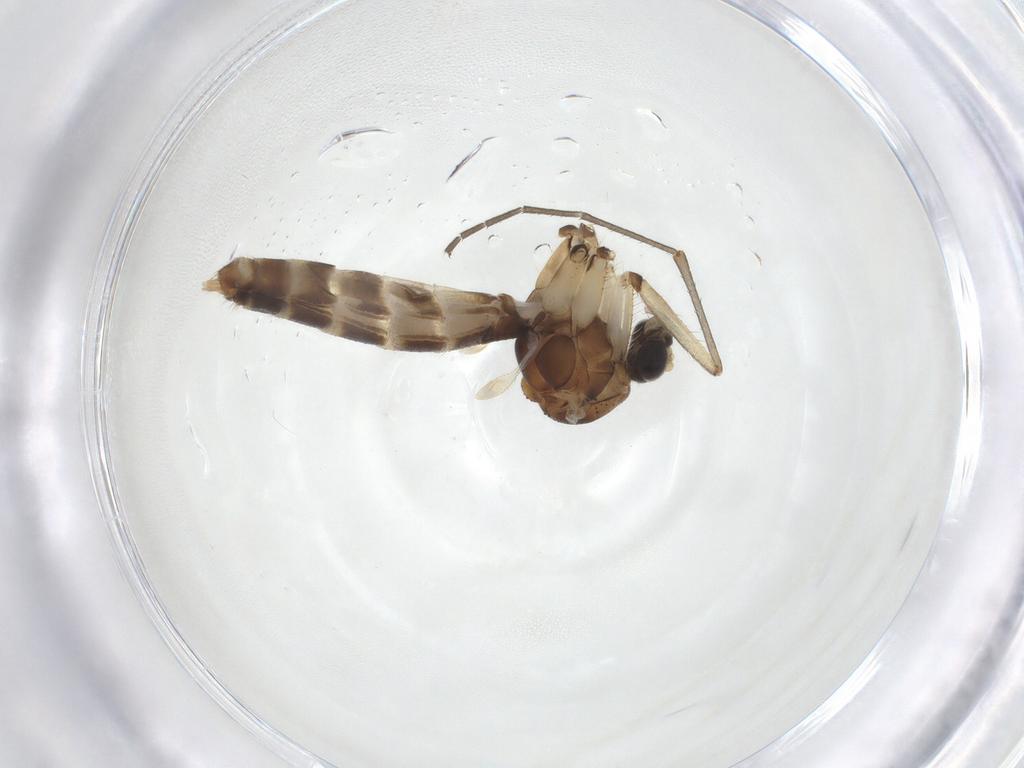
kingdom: Animalia
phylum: Arthropoda
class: Insecta
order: Diptera
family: Mycetophilidae
